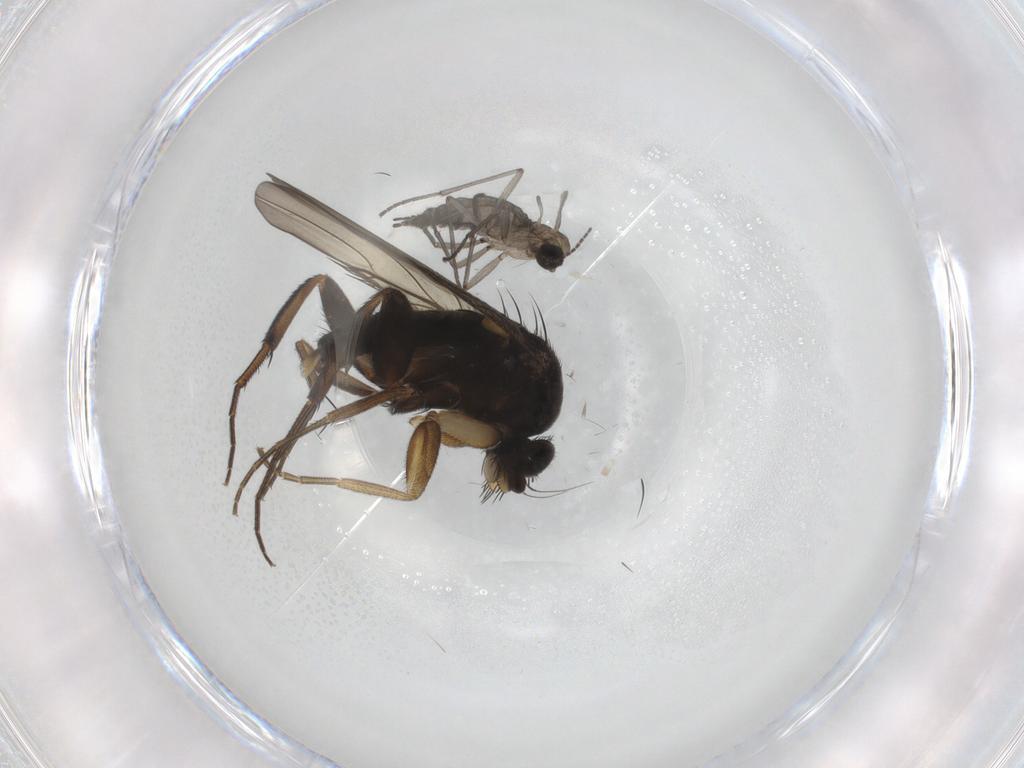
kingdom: Animalia
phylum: Arthropoda
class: Insecta
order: Diptera
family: Phoridae
